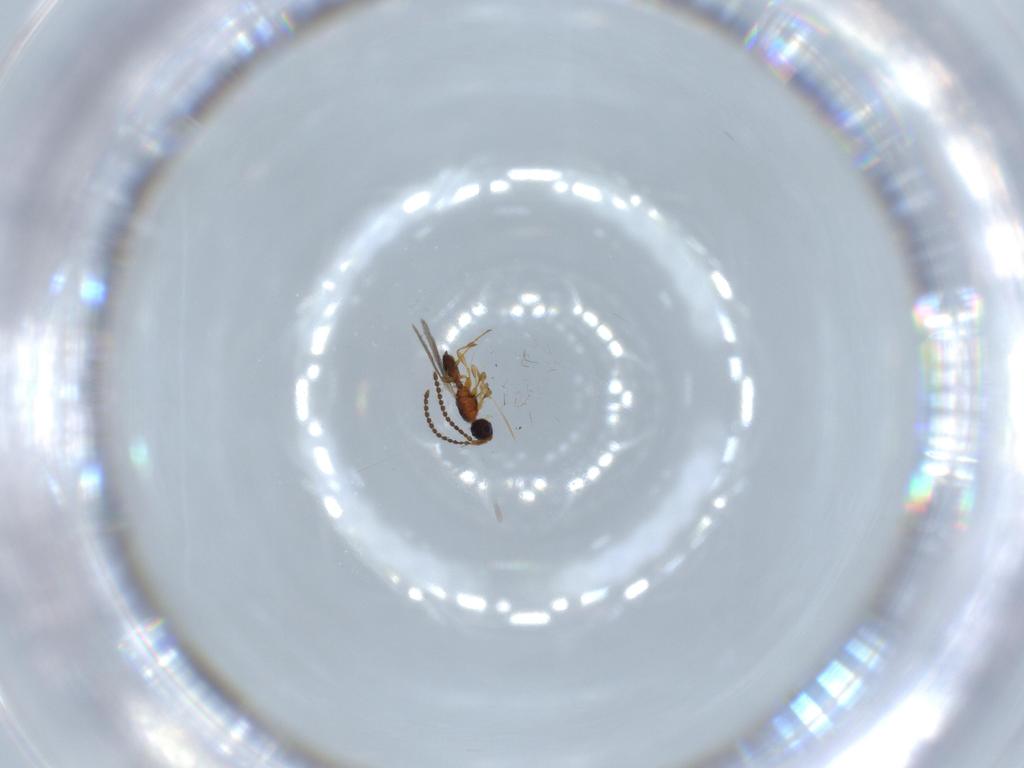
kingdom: Animalia
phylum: Arthropoda
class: Insecta
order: Hymenoptera
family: Diapriidae
